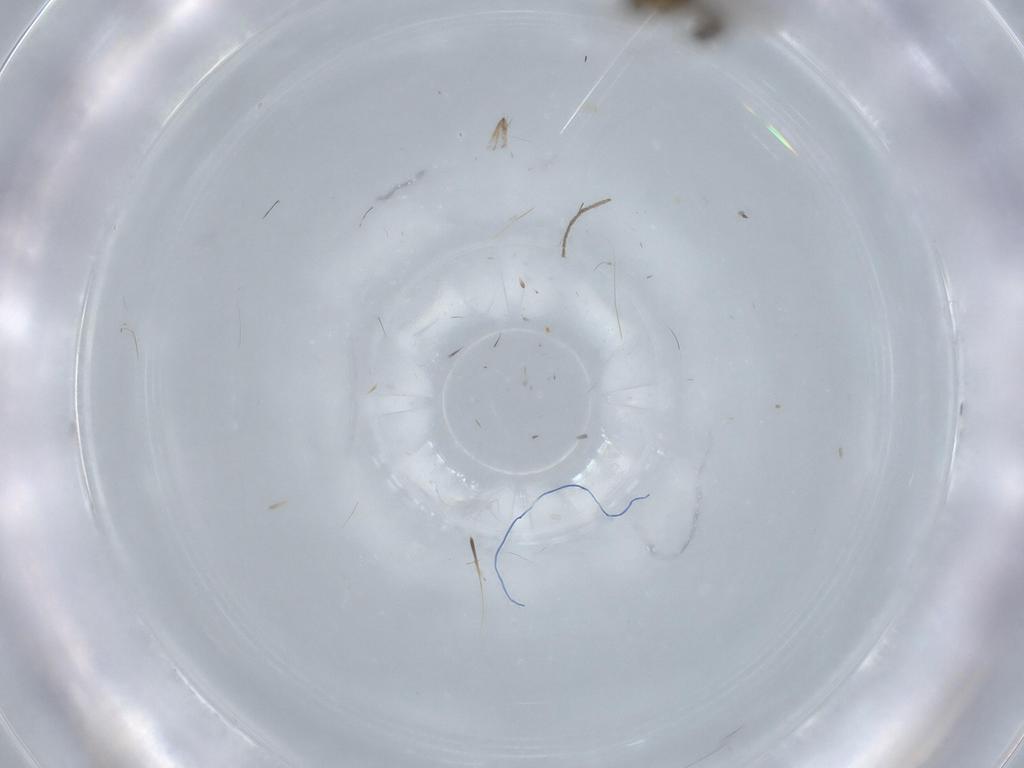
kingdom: Animalia
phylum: Arthropoda
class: Insecta
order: Diptera
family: Chironomidae
